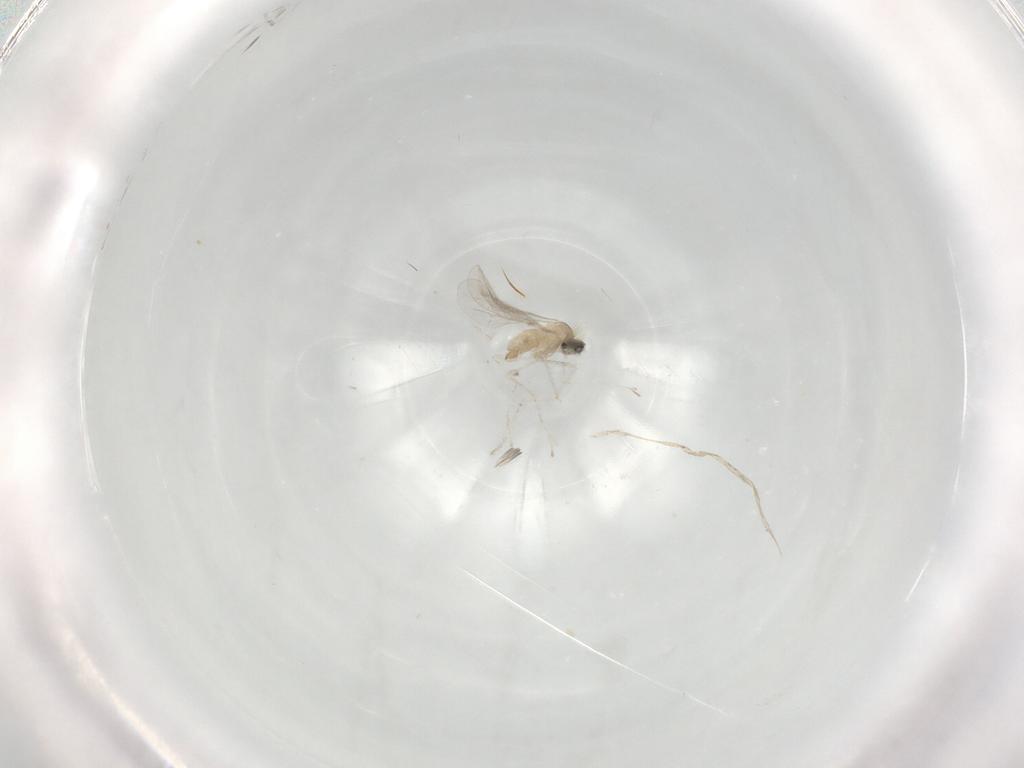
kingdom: Animalia
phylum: Arthropoda
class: Insecta
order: Diptera
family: Cecidomyiidae
